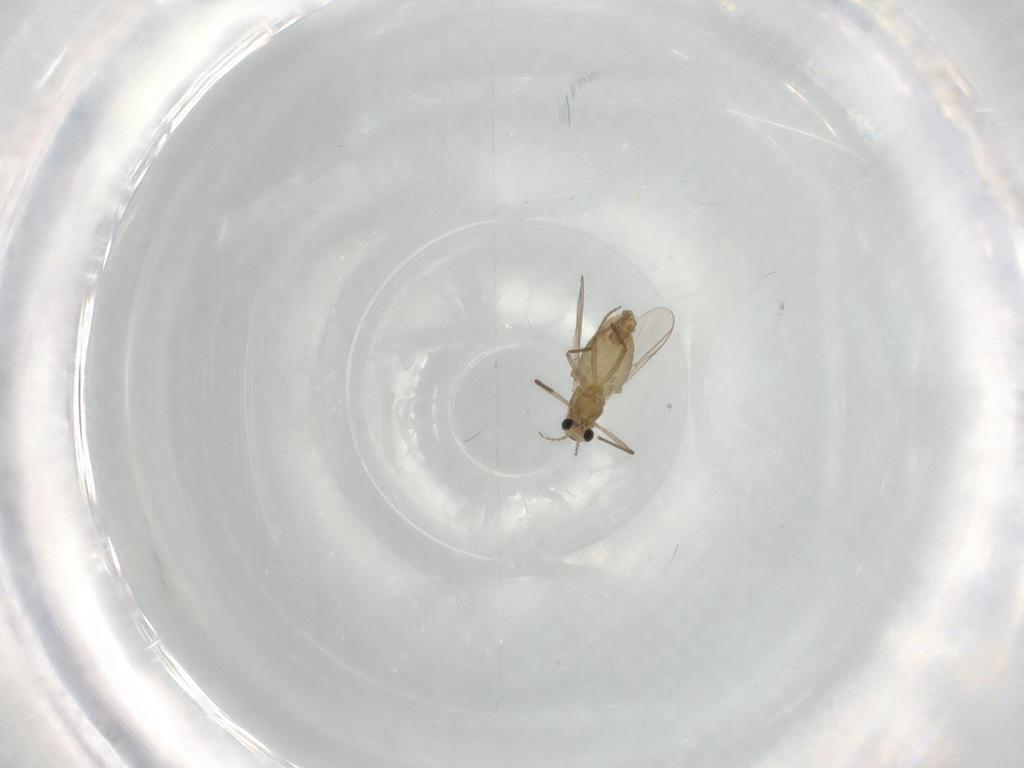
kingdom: Animalia
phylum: Arthropoda
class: Insecta
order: Diptera
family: Chironomidae
